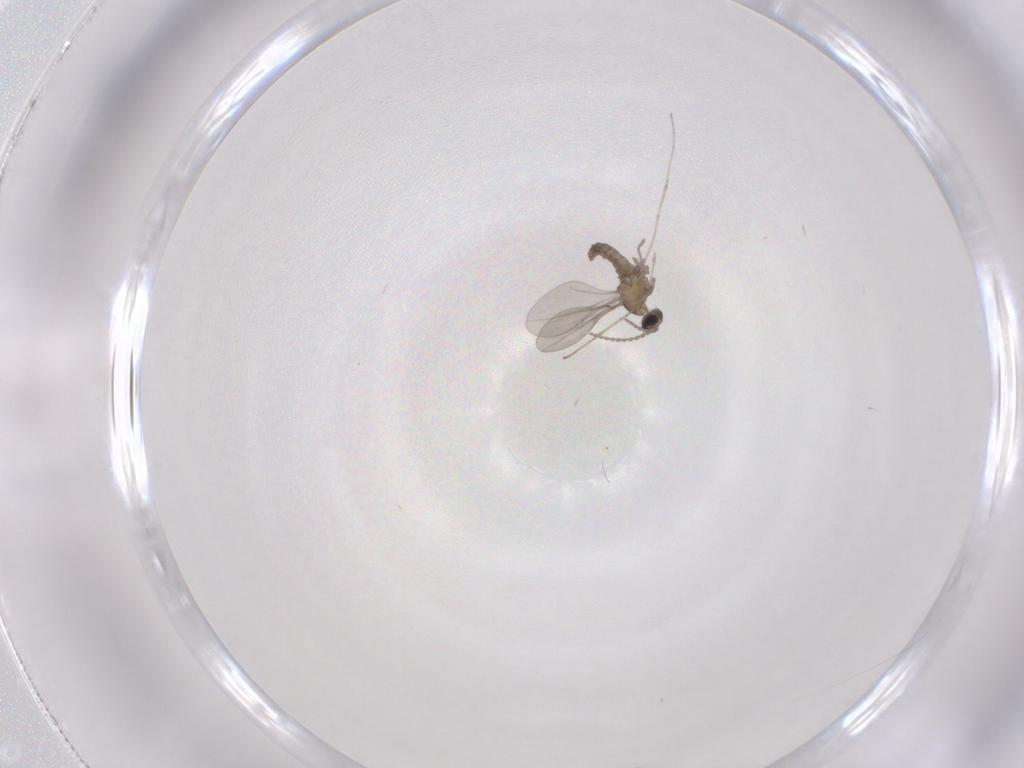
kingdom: Animalia
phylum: Arthropoda
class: Insecta
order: Diptera
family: Cecidomyiidae
